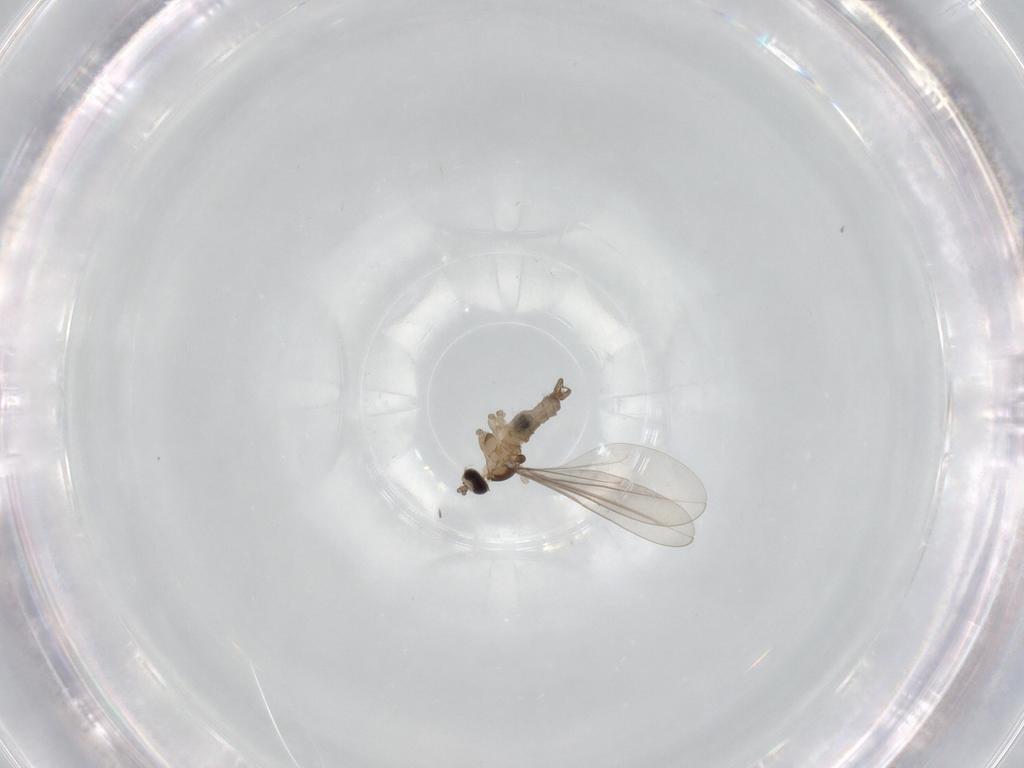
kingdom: Animalia
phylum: Arthropoda
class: Insecta
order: Diptera
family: Cecidomyiidae
